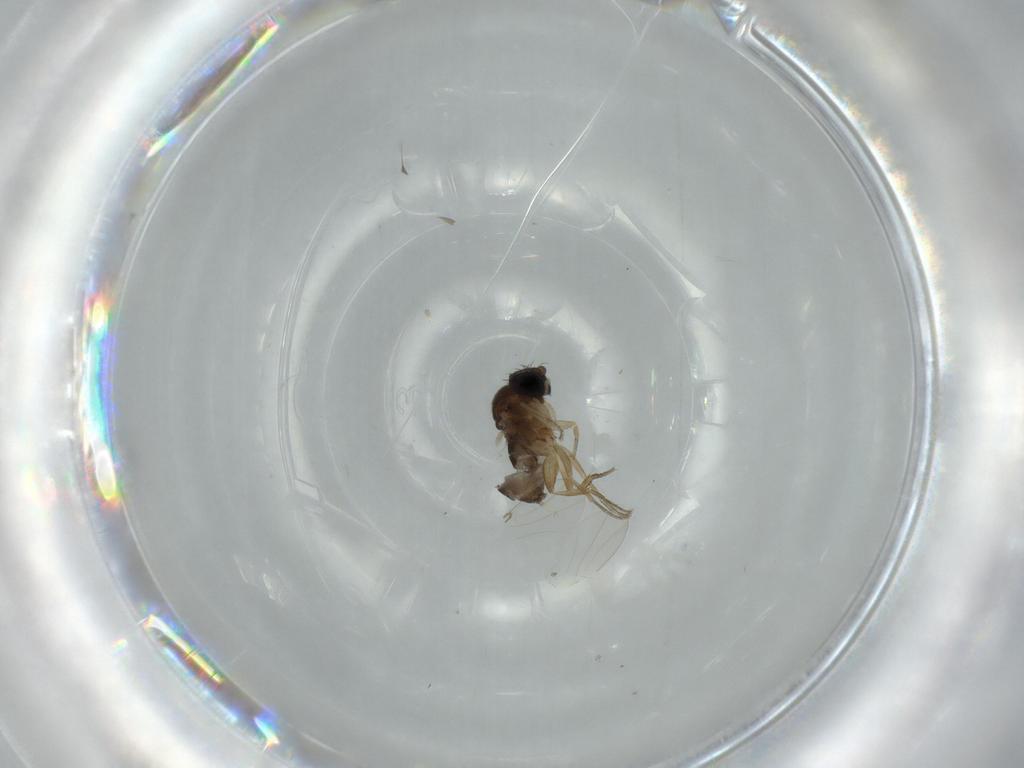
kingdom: Animalia
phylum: Arthropoda
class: Insecta
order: Diptera
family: Phoridae
